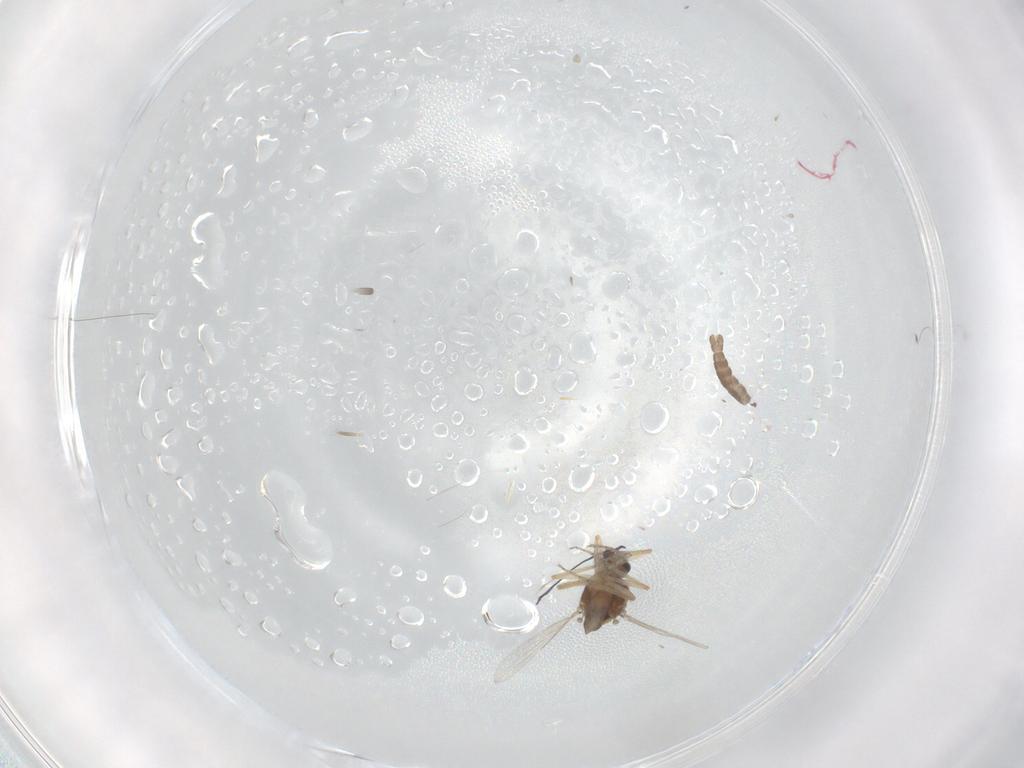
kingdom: Animalia
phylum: Arthropoda
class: Insecta
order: Diptera
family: Ceratopogonidae
